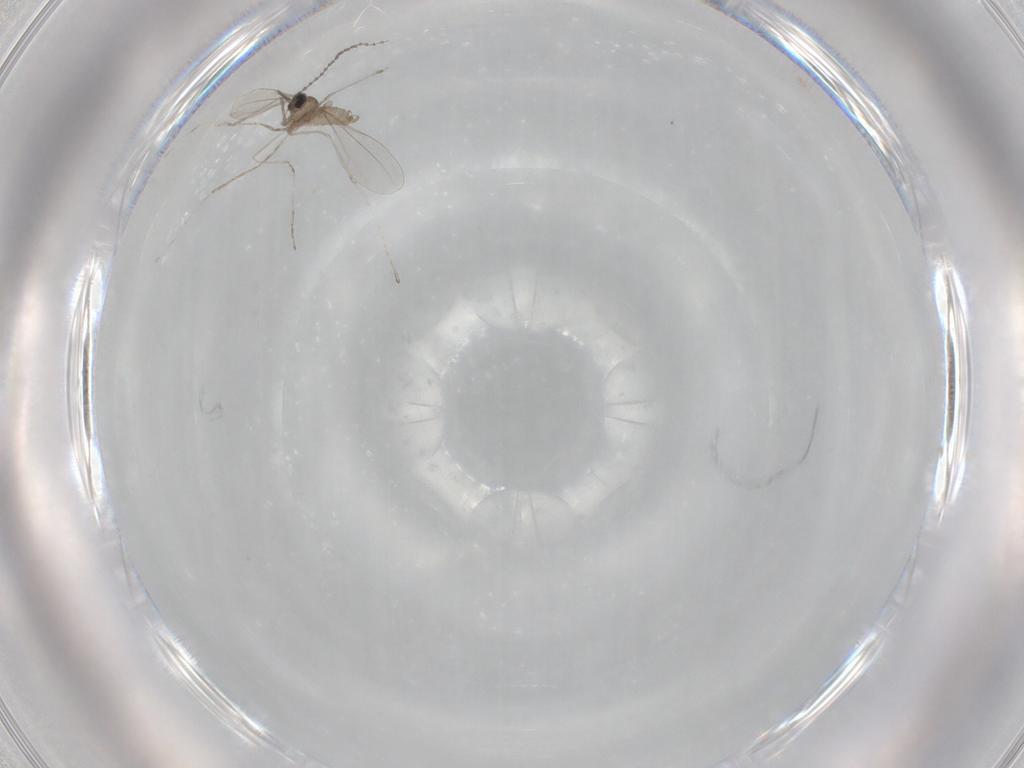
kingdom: Animalia
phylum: Arthropoda
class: Insecta
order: Diptera
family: Cecidomyiidae
